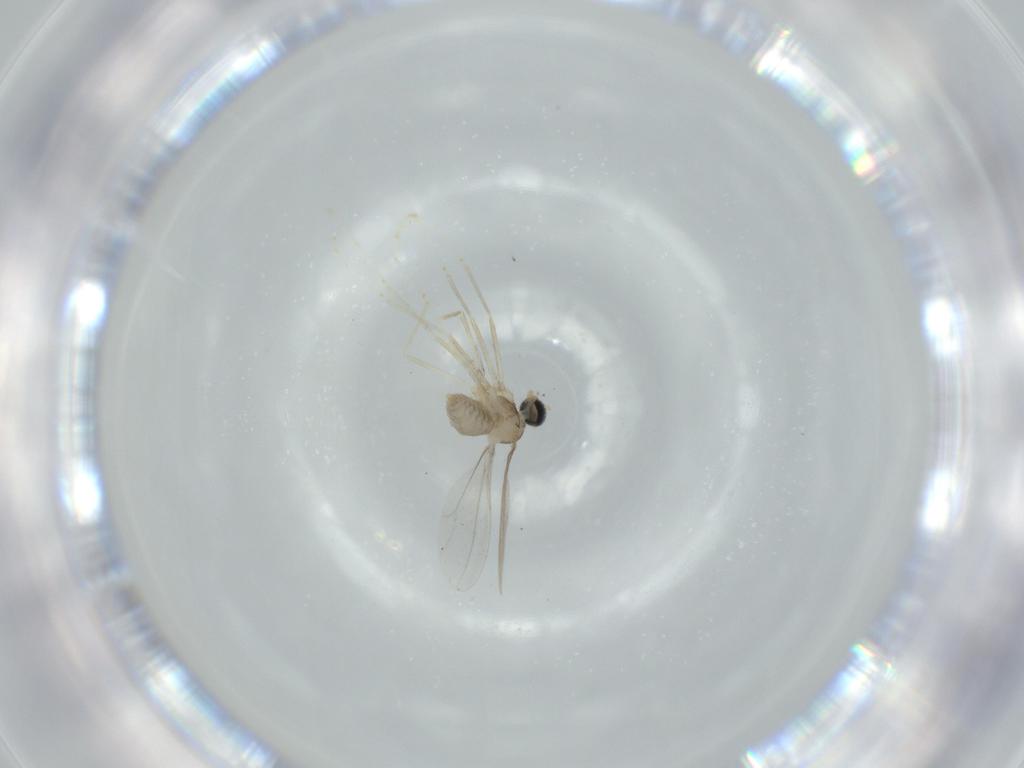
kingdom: Animalia
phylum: Arthropoda
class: Insecta
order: Diptera
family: Cecidomyiidae
